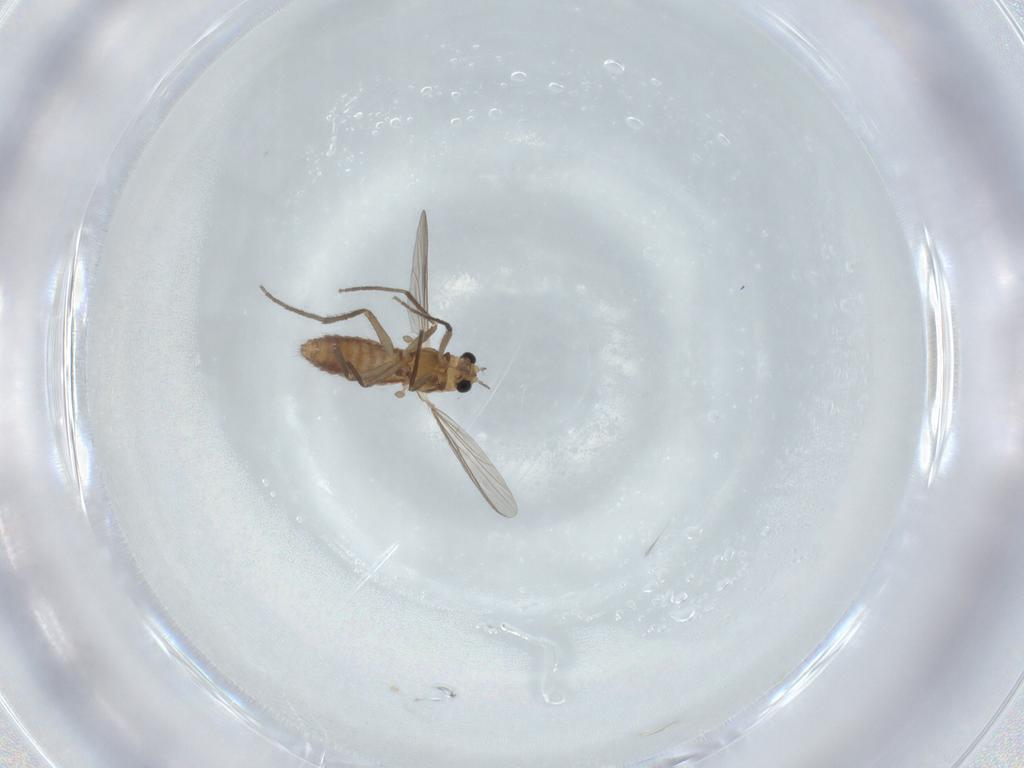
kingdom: Animalia
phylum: Arthropoda
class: Insecta
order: Diptera
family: Chironomidae
